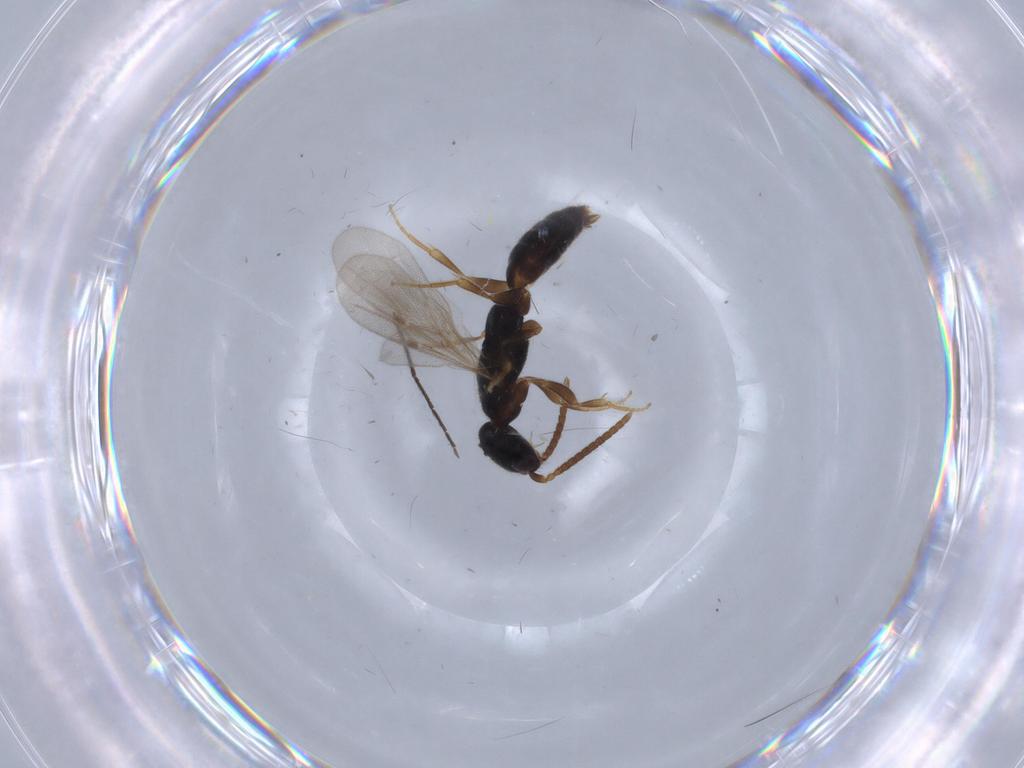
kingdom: Animalia
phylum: Arthropoda
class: Insecta
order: Hymenoptera
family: Bethylidae
